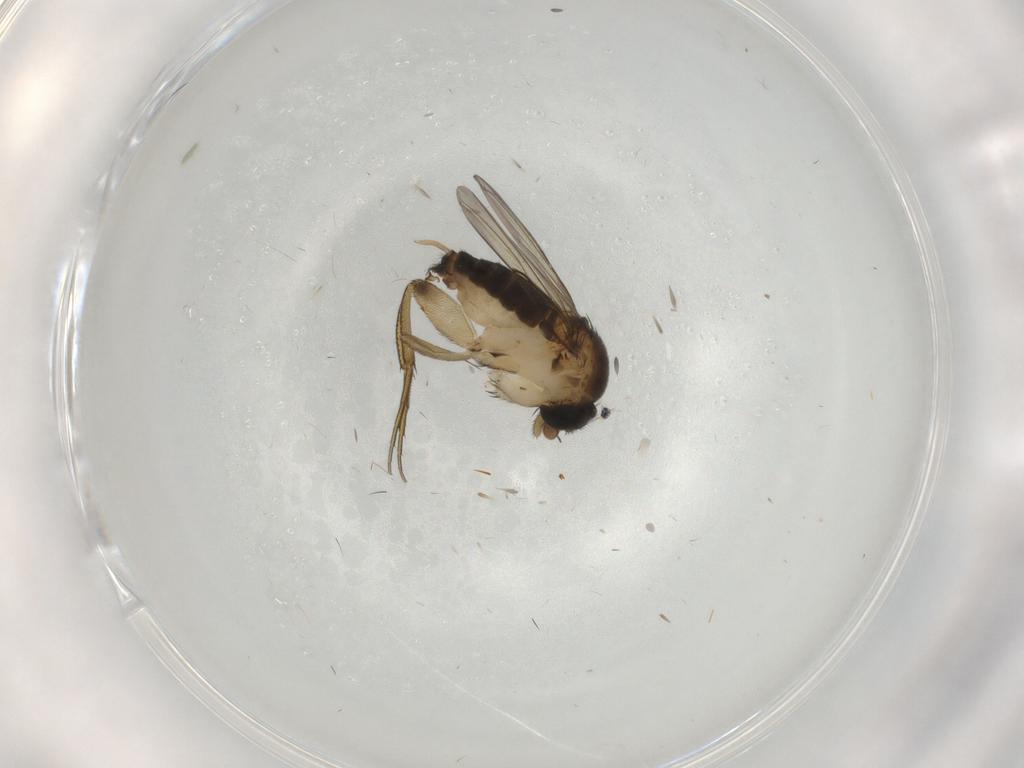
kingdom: Animalia
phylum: Arthropoda
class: Insecta
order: Diptera
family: Phoridae
